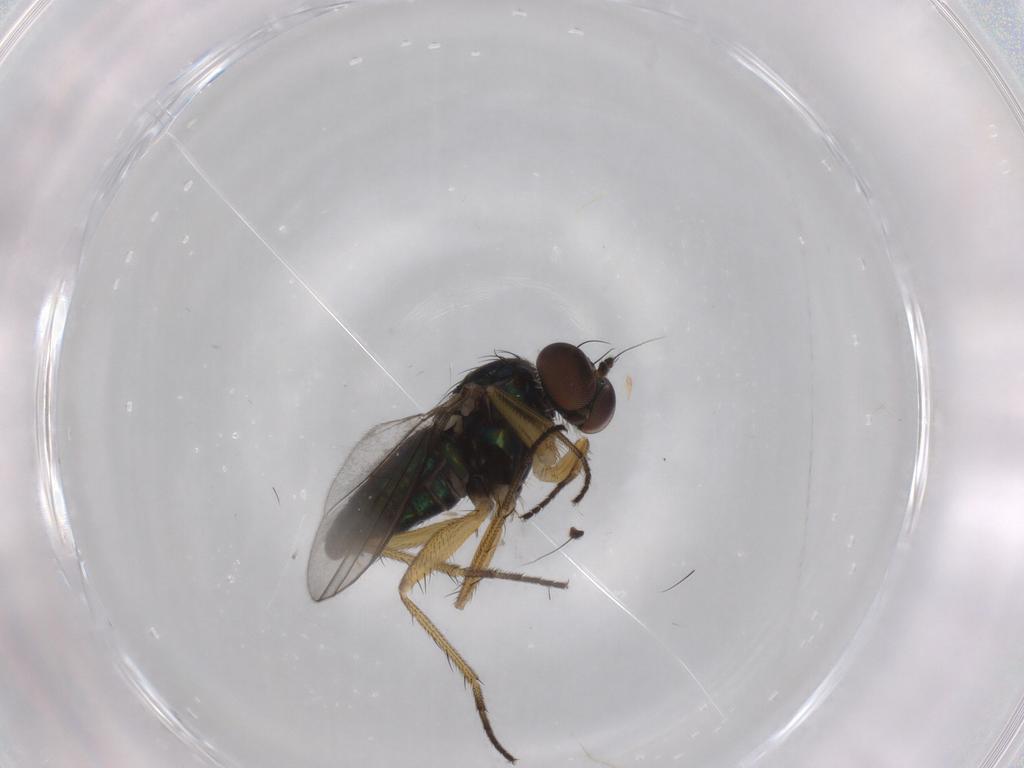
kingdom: Animalia
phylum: Arthropoda
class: Insecta
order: Diptera
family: Dolichopodidae
